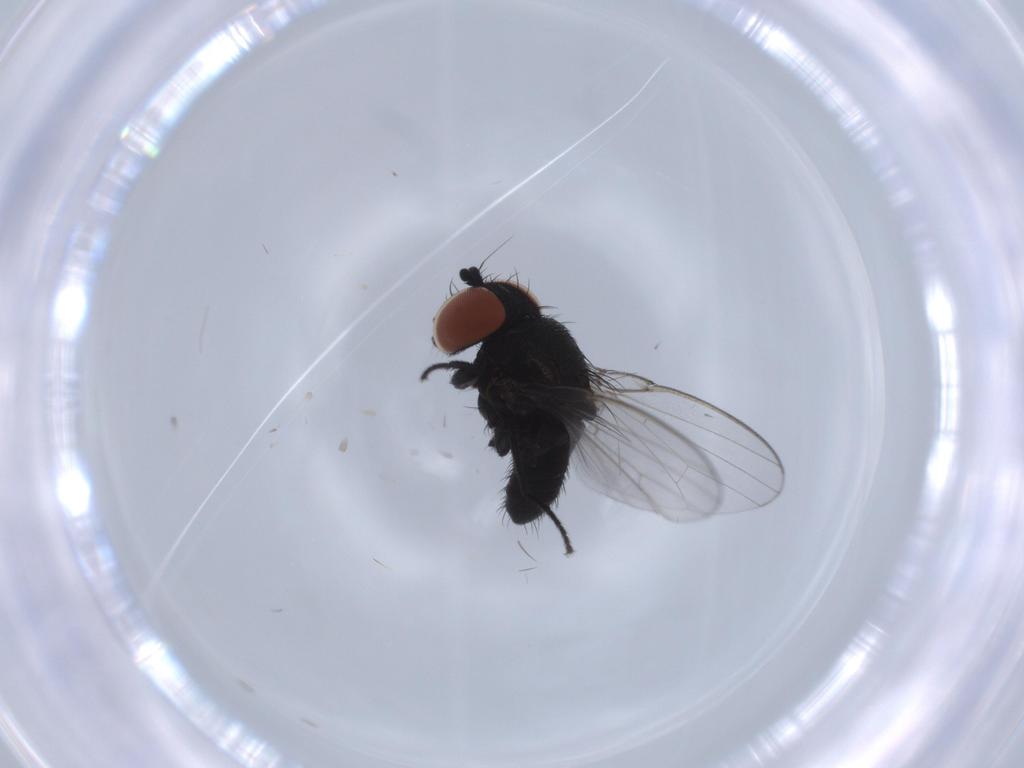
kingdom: Animalia
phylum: Arthropoda
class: Insecta
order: Diptera
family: Milichiidae
